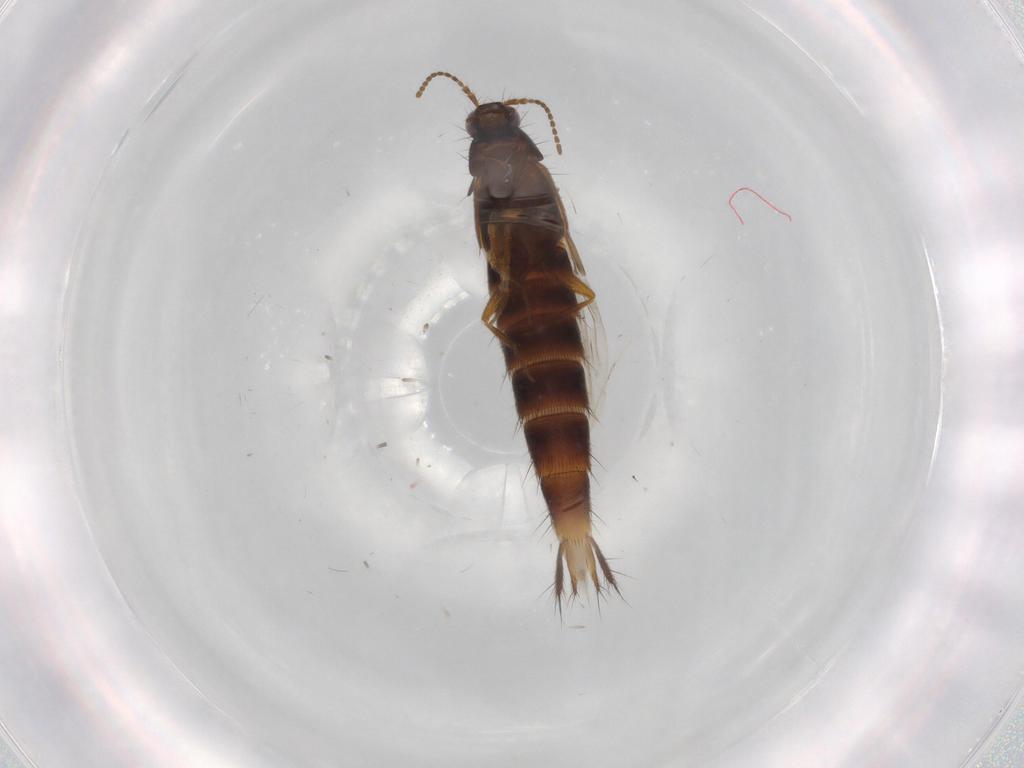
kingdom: Animalia
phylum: Arthropoda
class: Insecta
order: Coleoptera
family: Staphylinidae
